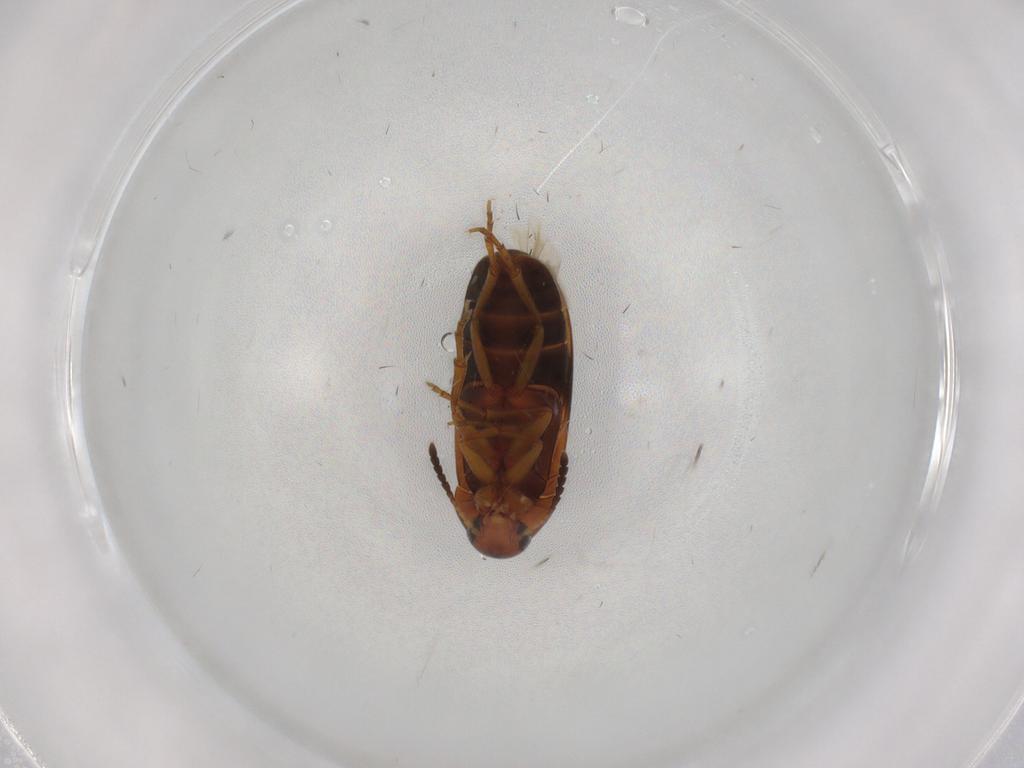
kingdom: Animalia
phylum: Arthropoda
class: Insecta
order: Coleoptera
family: Scraptiidae
